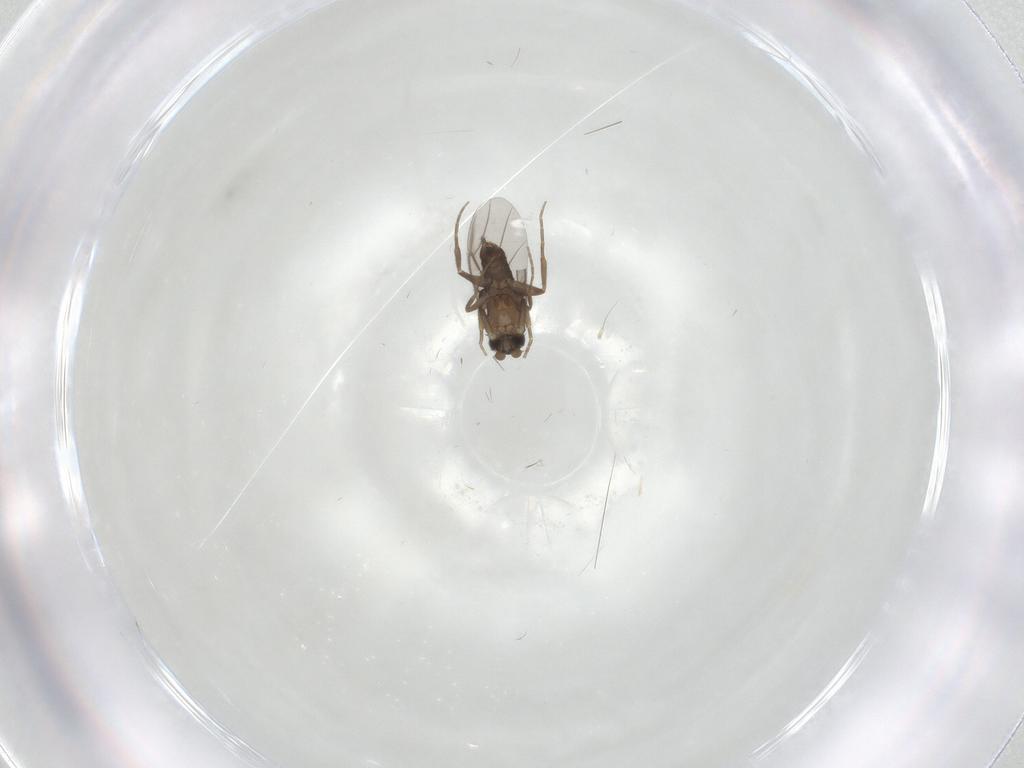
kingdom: Animalia
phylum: Arthropoda
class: Insecta
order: Diptera
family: Phoridae
